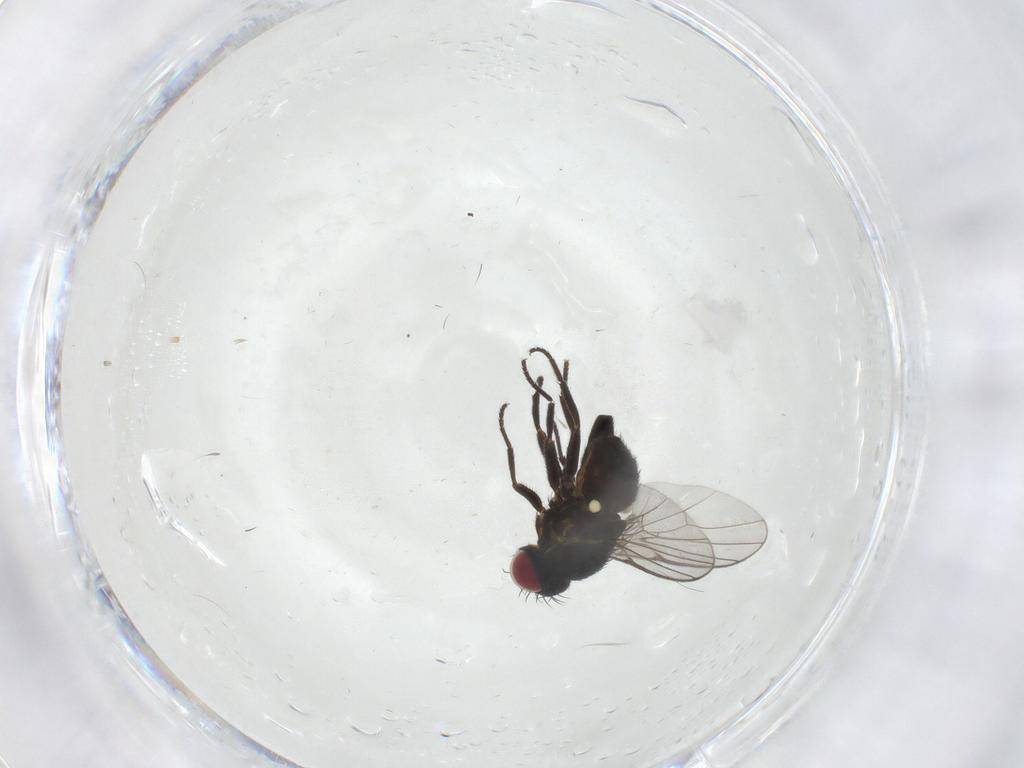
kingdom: Animalia
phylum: Arthropoda
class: Insecta
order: Diptera
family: Agromyzidae
